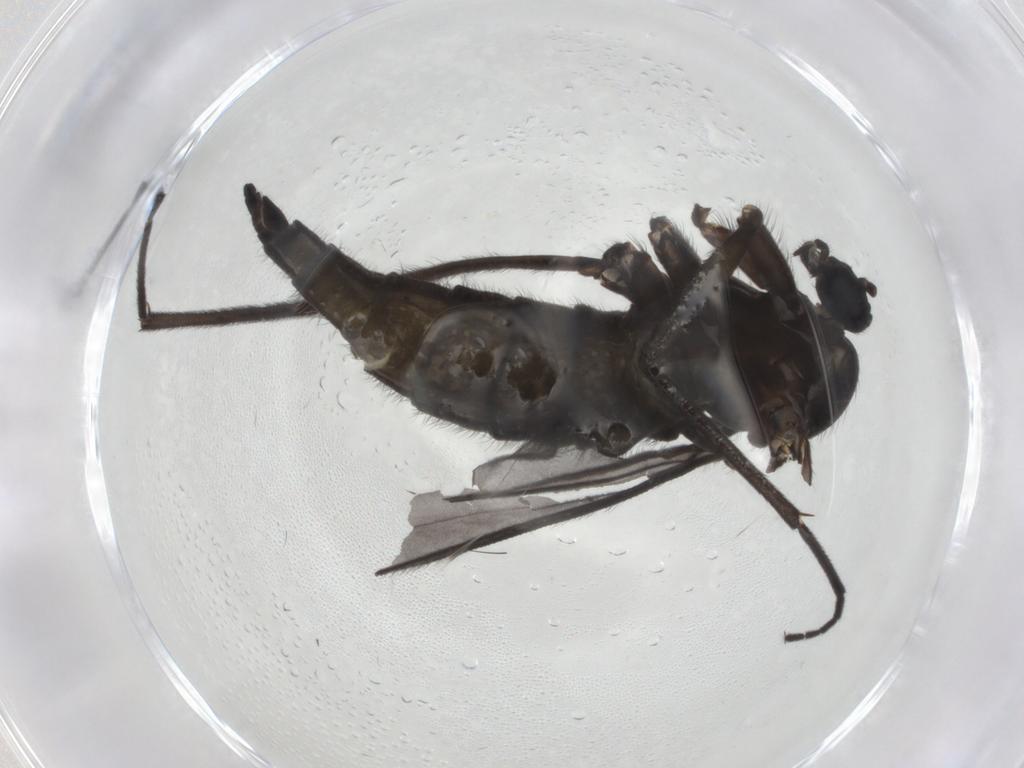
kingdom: Animalia
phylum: Arthropoda
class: Insecta
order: Diptera
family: Sciaridae
